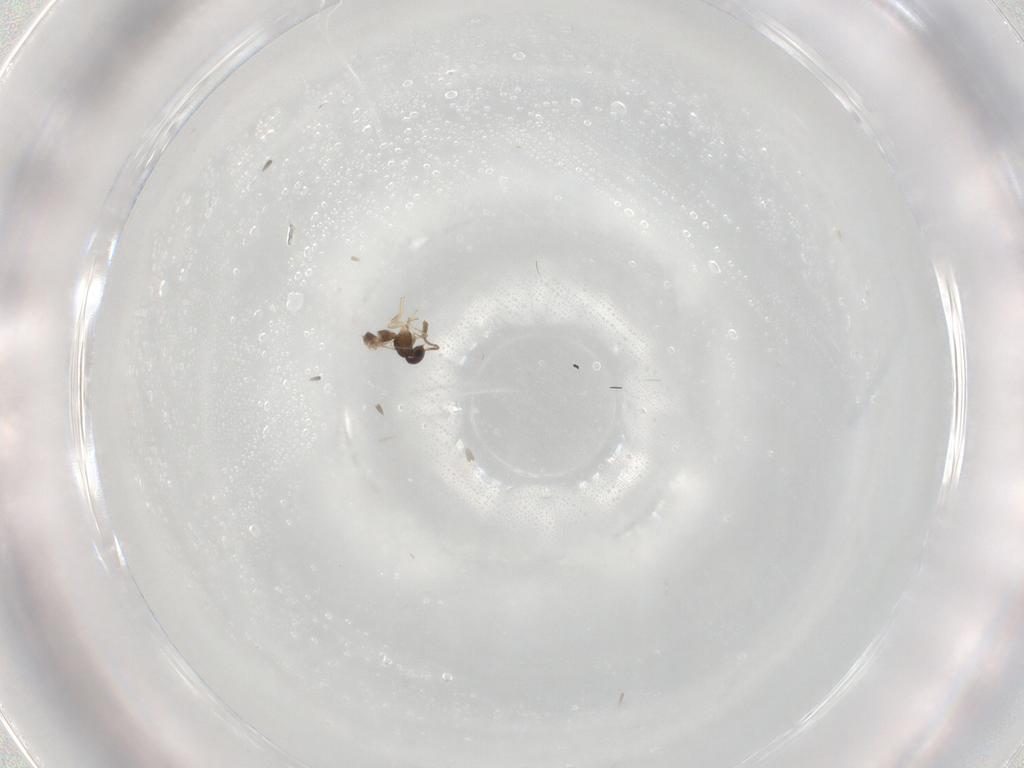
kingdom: Animalia
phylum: Arthropoda
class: Insecta
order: Hymenoptera
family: Scelionidae
